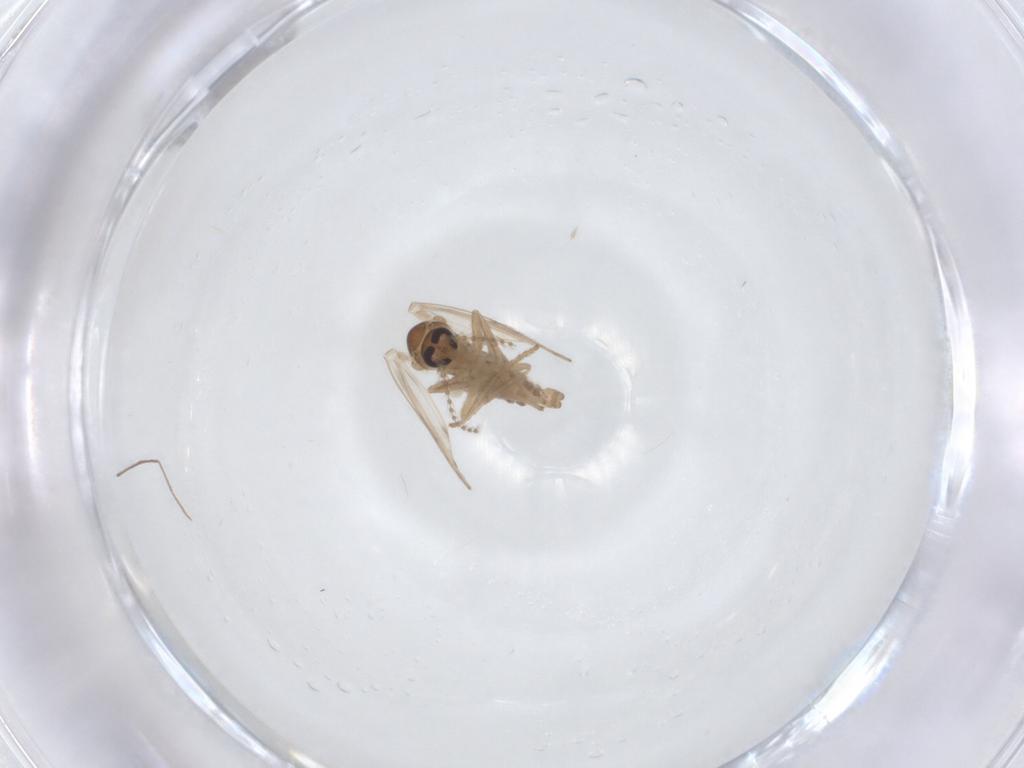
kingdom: Animalia
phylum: Arthropoda
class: Insecta
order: Diptera
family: Psychodidae
